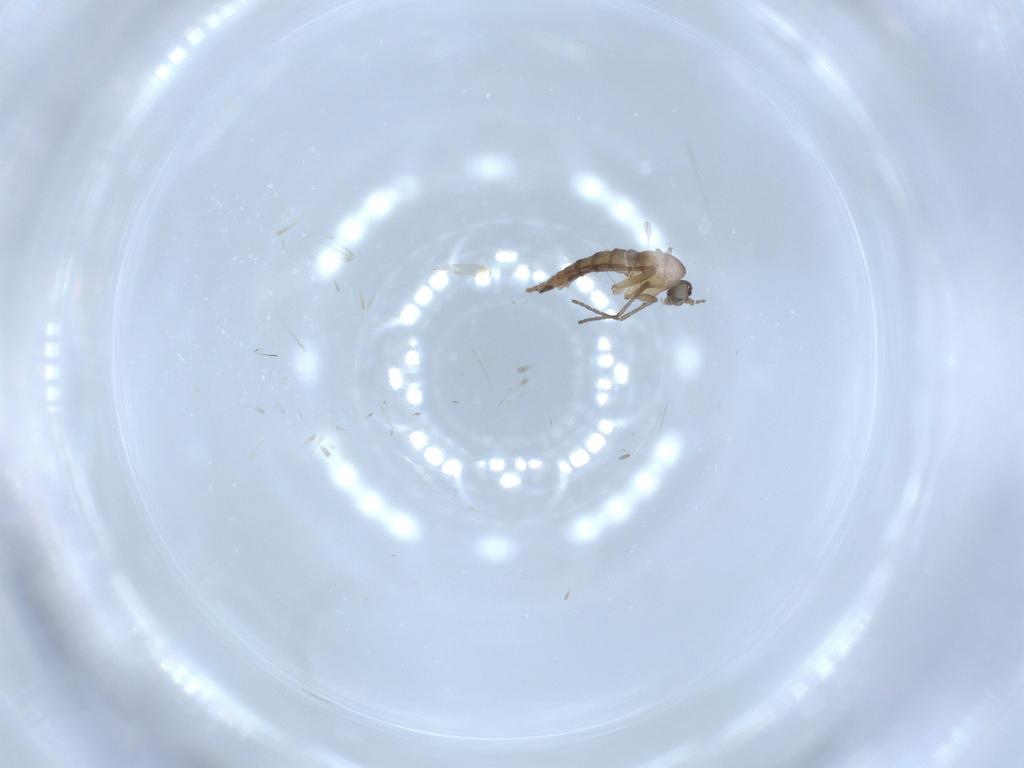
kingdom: Animalia
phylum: Arthropoda
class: Insecta
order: Diptera
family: Sciaridae
